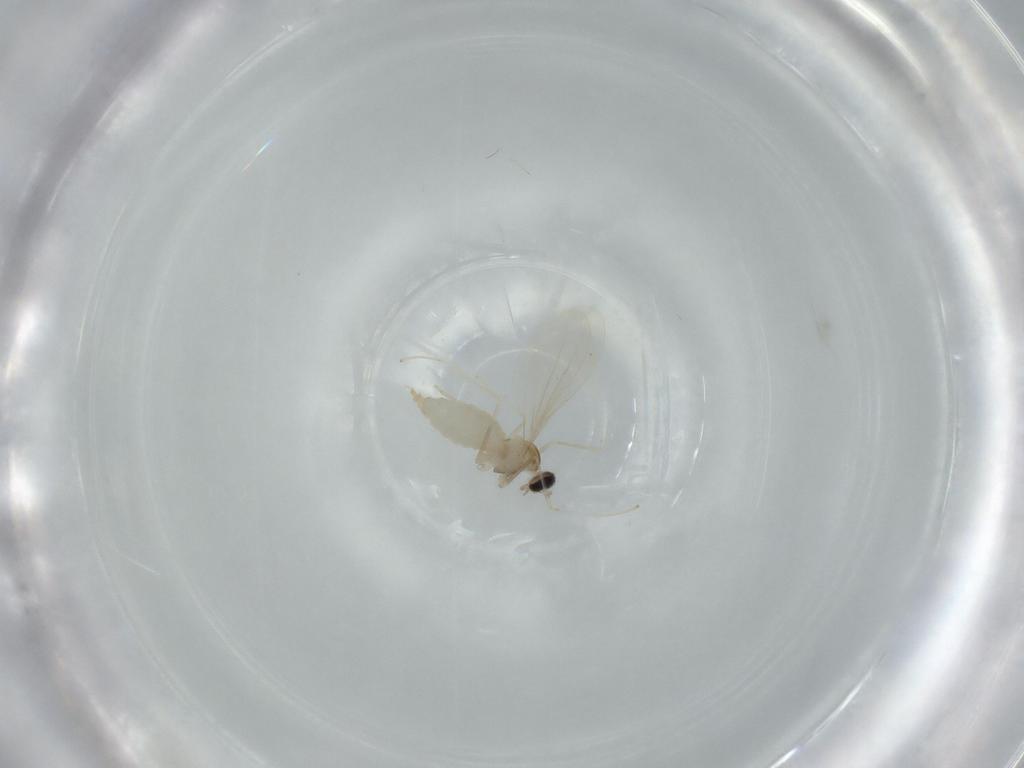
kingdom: Animalia
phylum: Arthropoda
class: Insecta
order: Diptera
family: Cecidomyiidae
